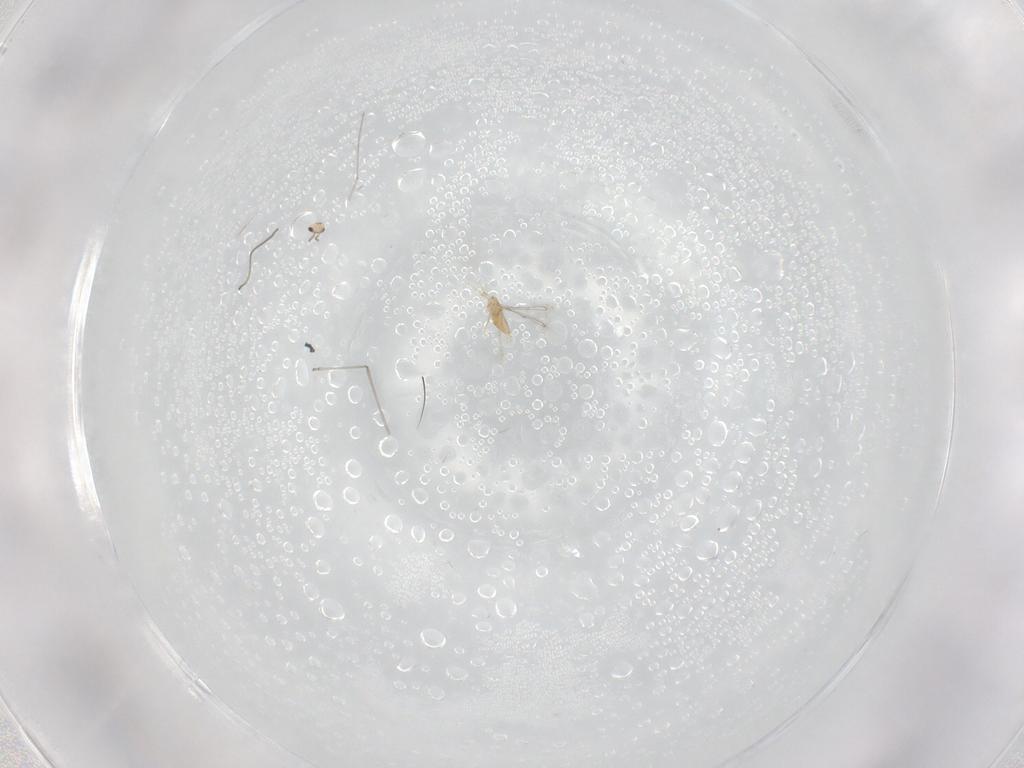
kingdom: Animalia
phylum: Arthropoda
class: Insecta
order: Hymenoptera
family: Mymaridae
